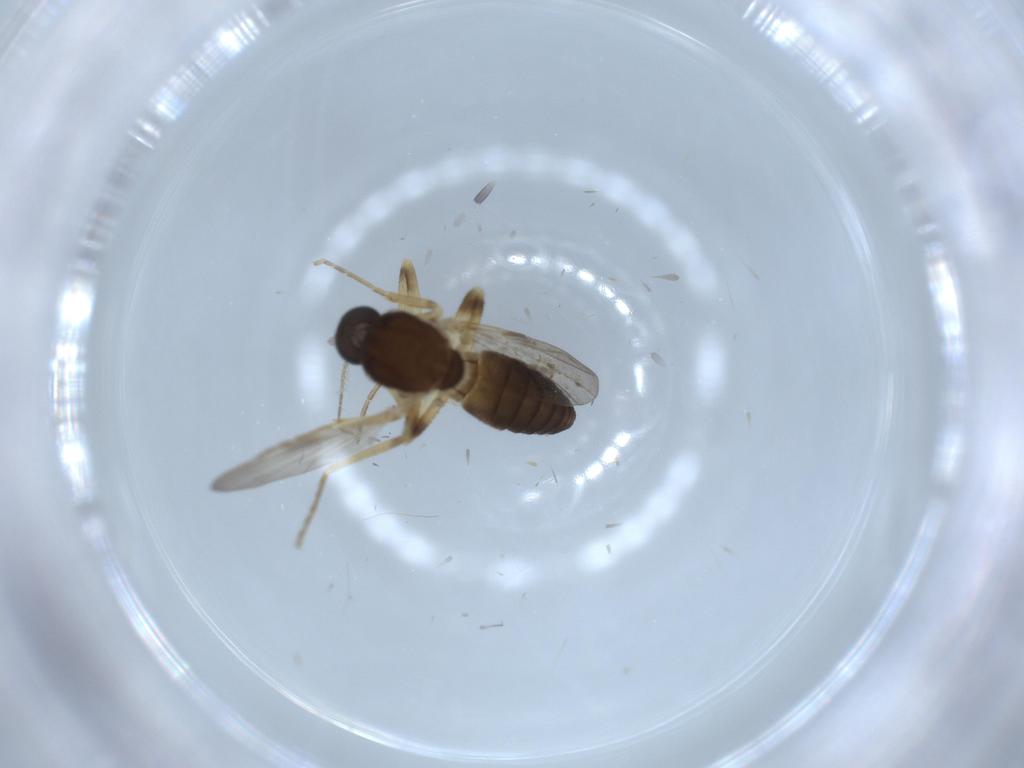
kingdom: Animalia
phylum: Arthropoda
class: Insecta
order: Diptera
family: Ceratopogonidae
